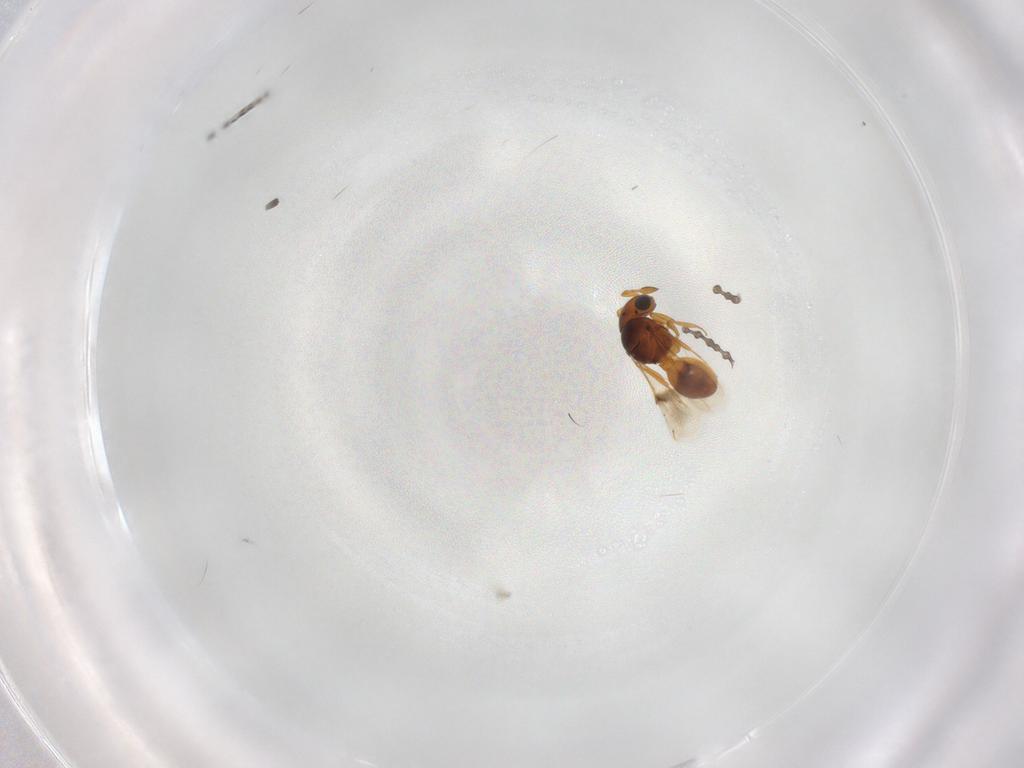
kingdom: Animalia
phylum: Arthropoda
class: Insecta
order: Hymenoptera
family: Scelionidae
